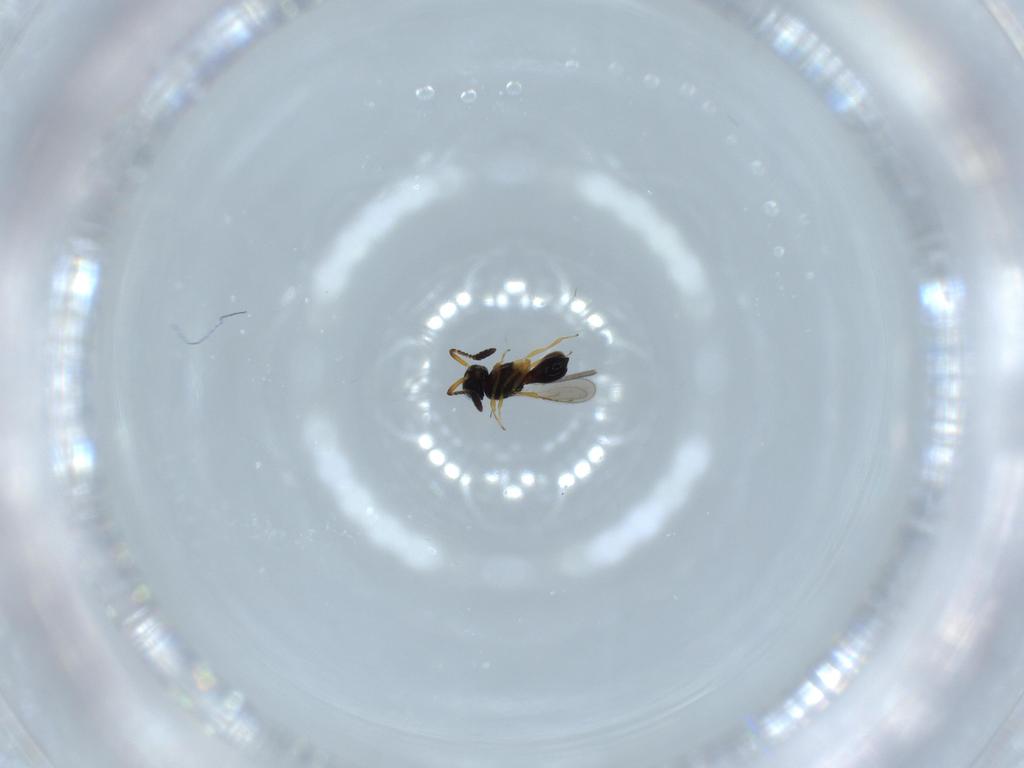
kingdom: Animalia
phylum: Arthropoda
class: Insecta
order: Hymenoptera
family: Scelionidae
